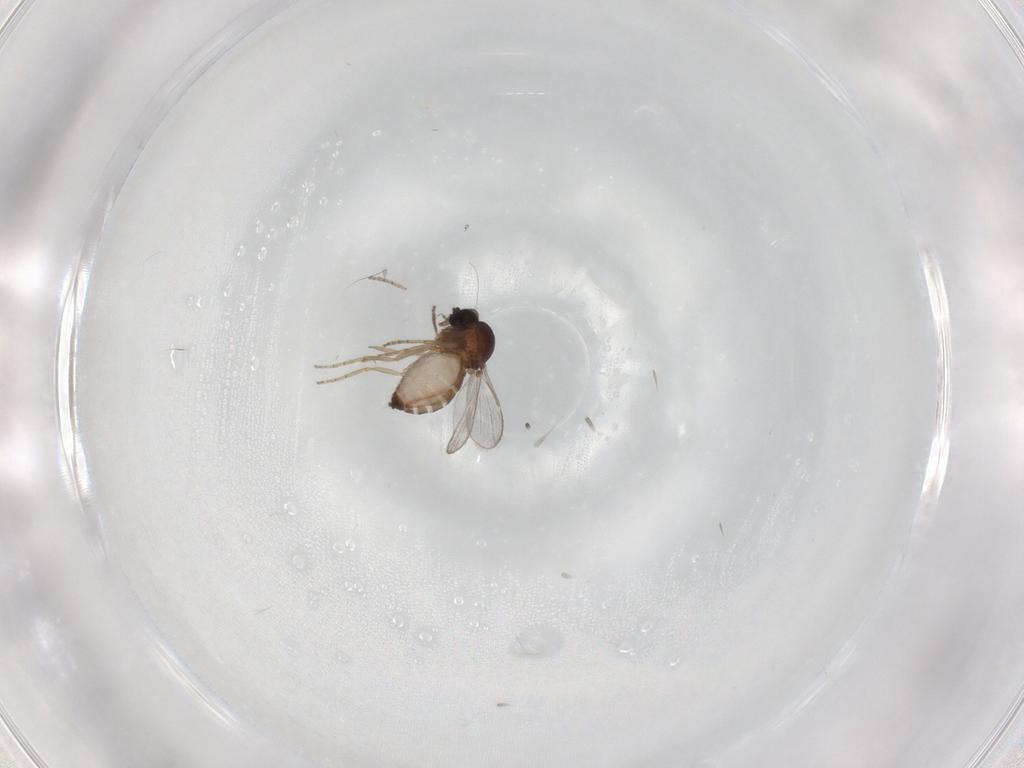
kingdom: Animalia
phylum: Arthropoda
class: Insecta
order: Diptera
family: Ceratopogonidae
